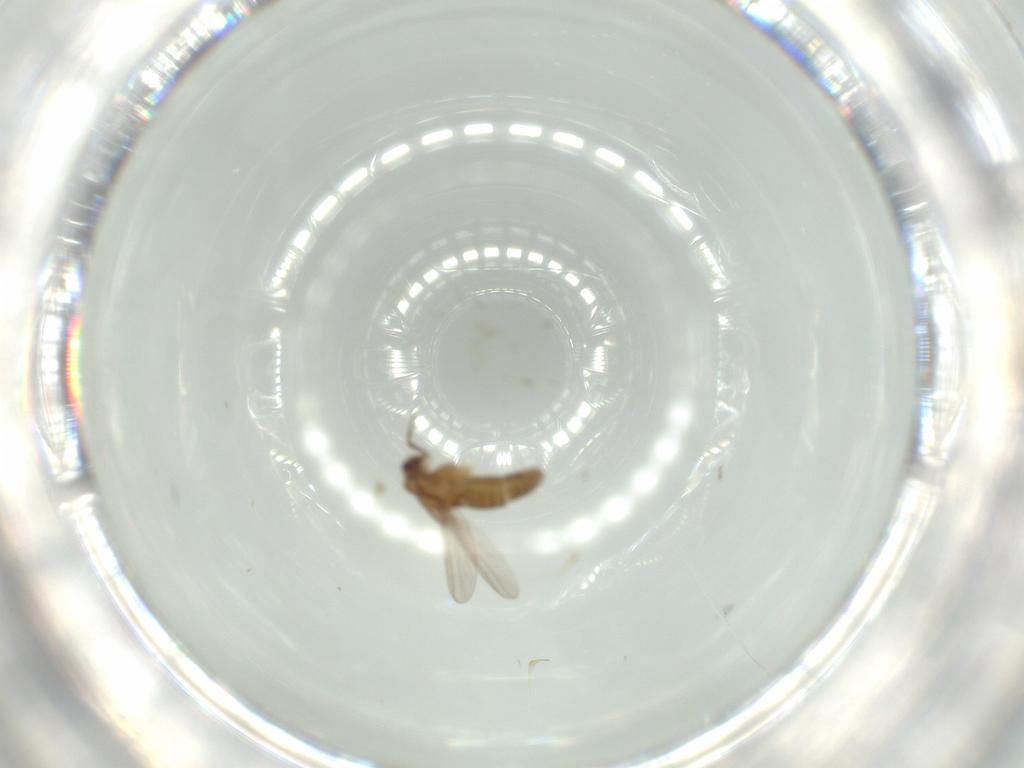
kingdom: Animalia
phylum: Arthropoda
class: Insecta
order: Diptera
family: Chironomidae
